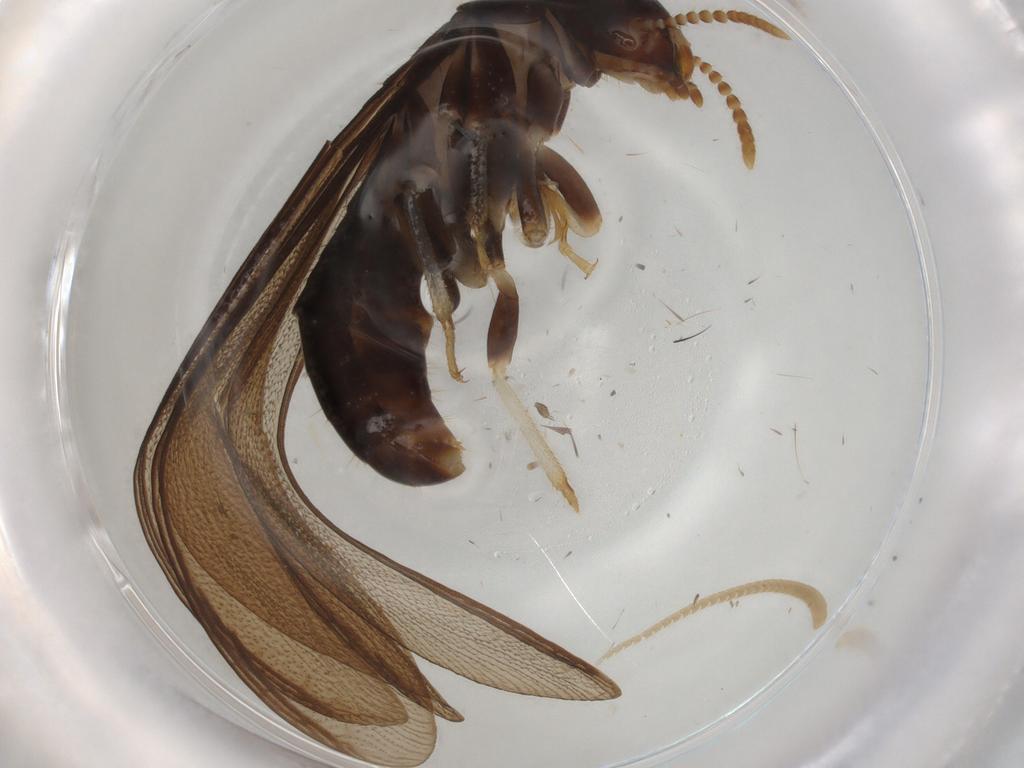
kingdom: Animalia
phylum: Arthropoda
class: Insecta
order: Blattodea
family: Kalotermitidae
